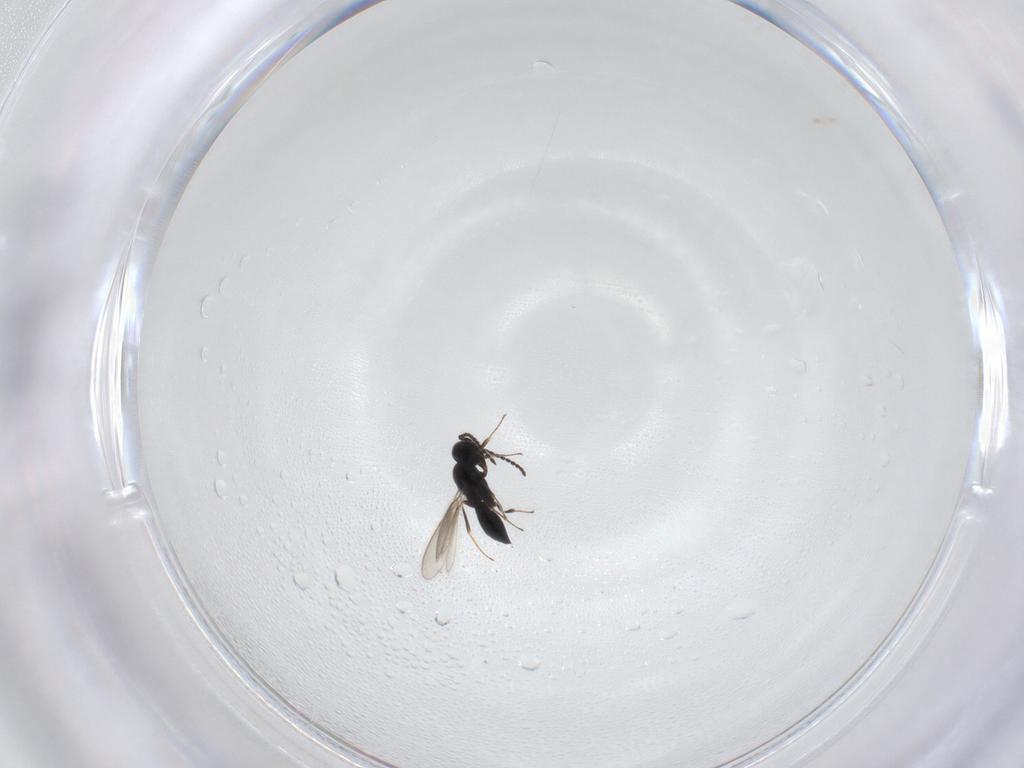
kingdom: Animalia
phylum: Arthropoda
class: Insecta
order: Hymenoptera
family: Scelionidae
